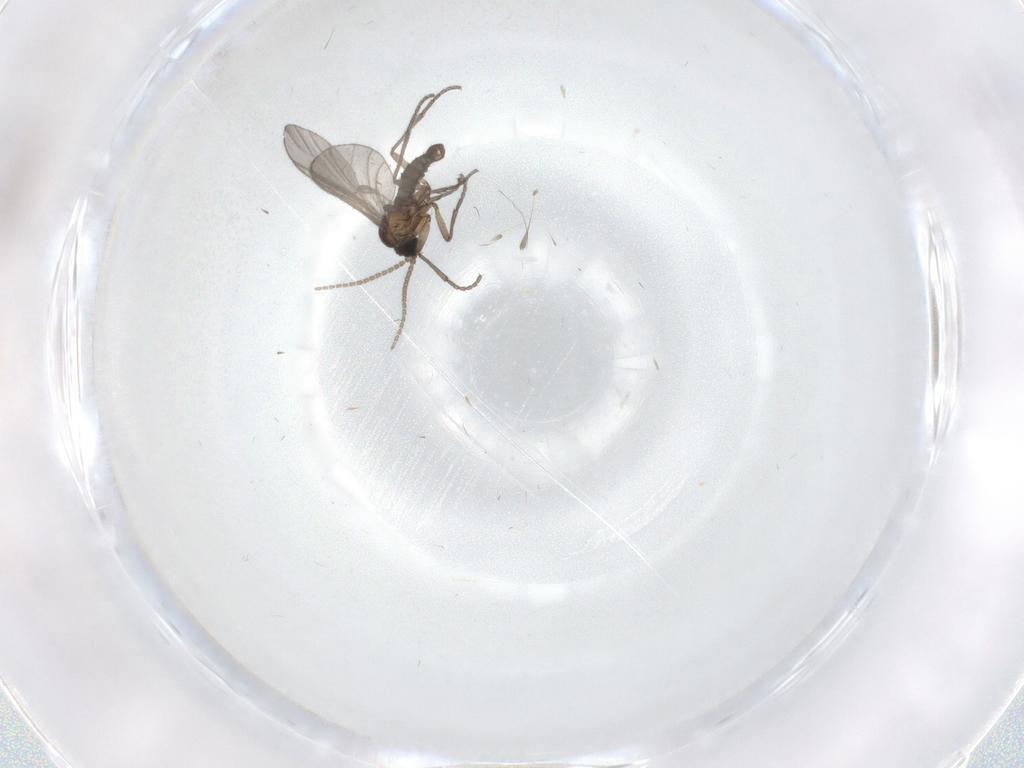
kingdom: Animalia
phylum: Arthropoda
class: Insecta
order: Diptera
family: Sciaridae
